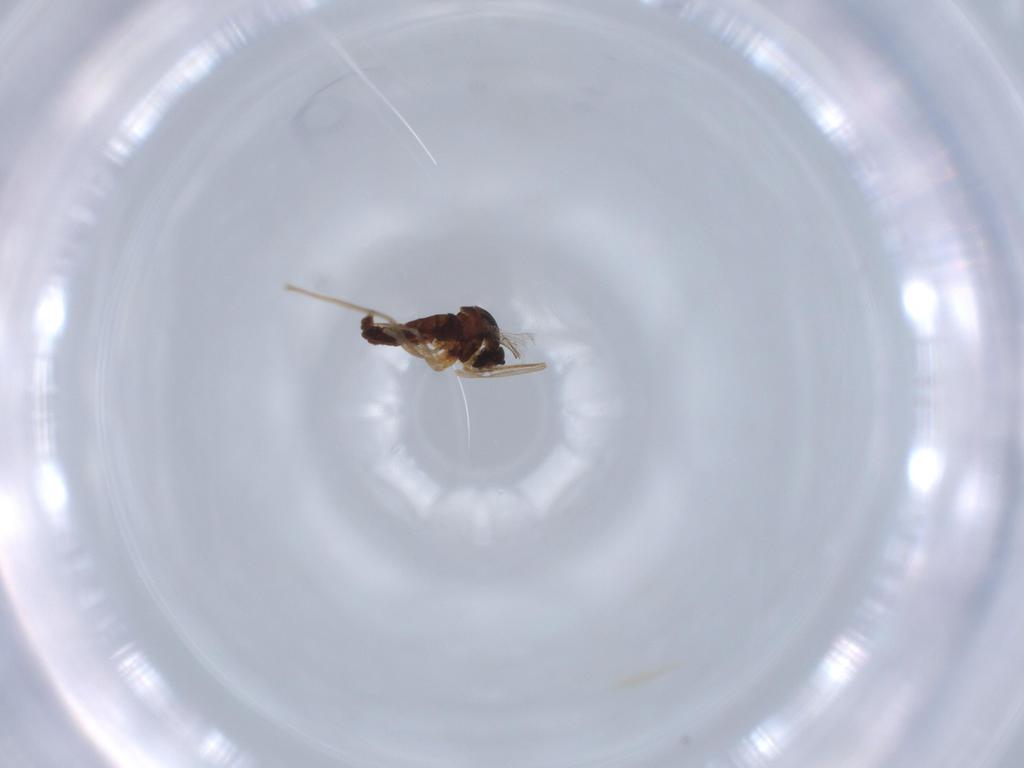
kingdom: Animalia
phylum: Arthropoda
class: Insecta
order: Diptera
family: Cecidomyiidae
